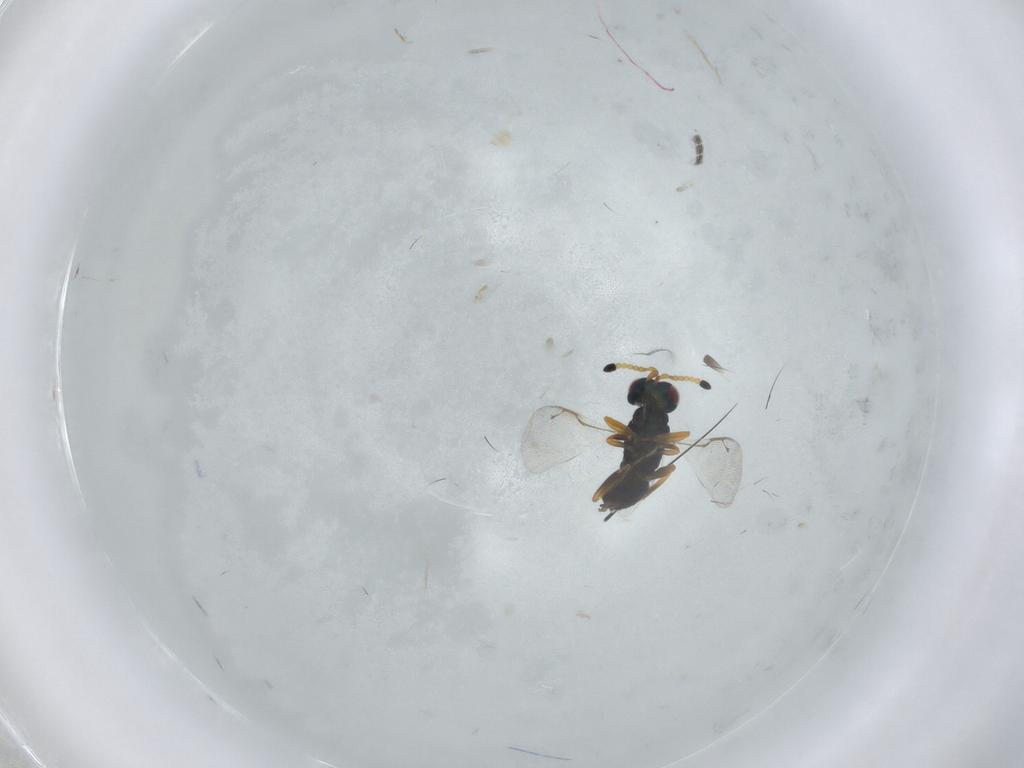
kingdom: Animalia
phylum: Arthropoda
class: Insecta
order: Hymenoptera
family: Pteromalidae
